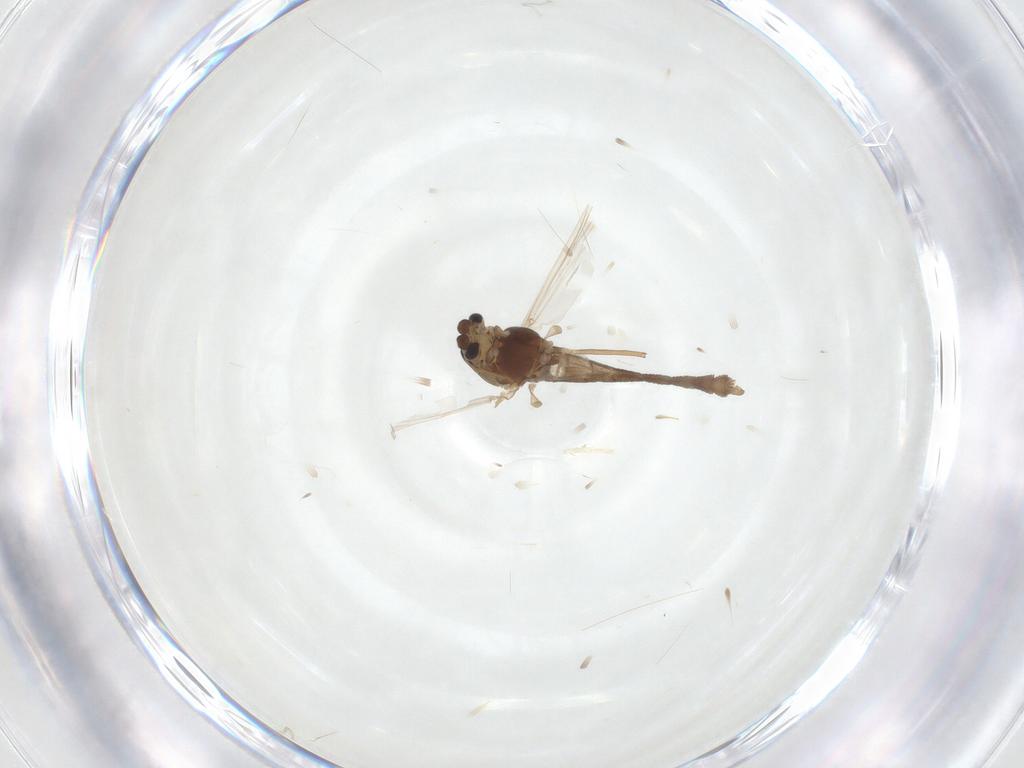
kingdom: Animalia
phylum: Arthropoda
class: Insecta
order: Diptera
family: Chironomidae
